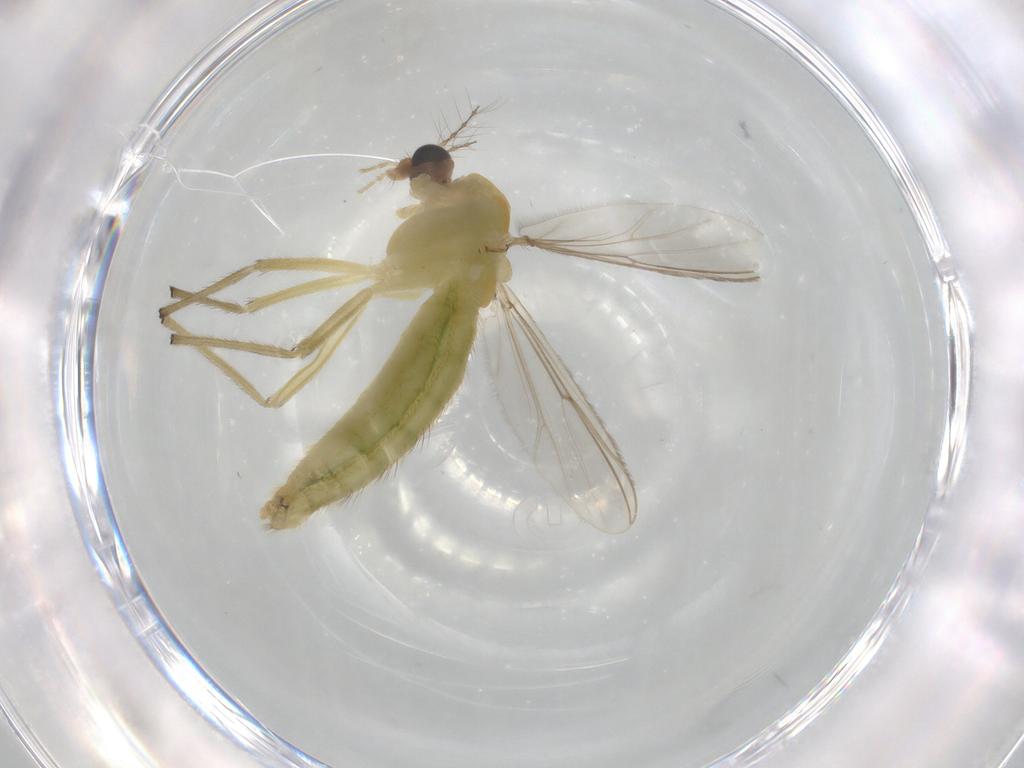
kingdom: Animalia
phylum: Arthropoda
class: Insecta
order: Diptera
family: Chironomidae
